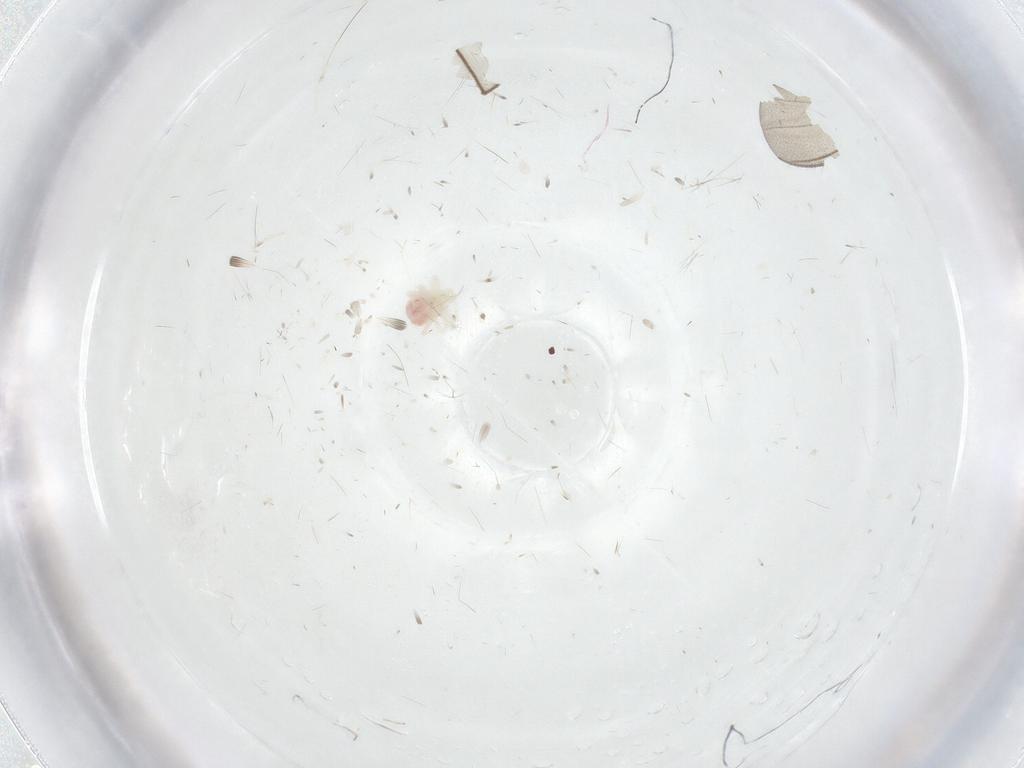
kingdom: Animalia
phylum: Arthropoda
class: Arachnida
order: Trombidiformes
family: Anystidae
